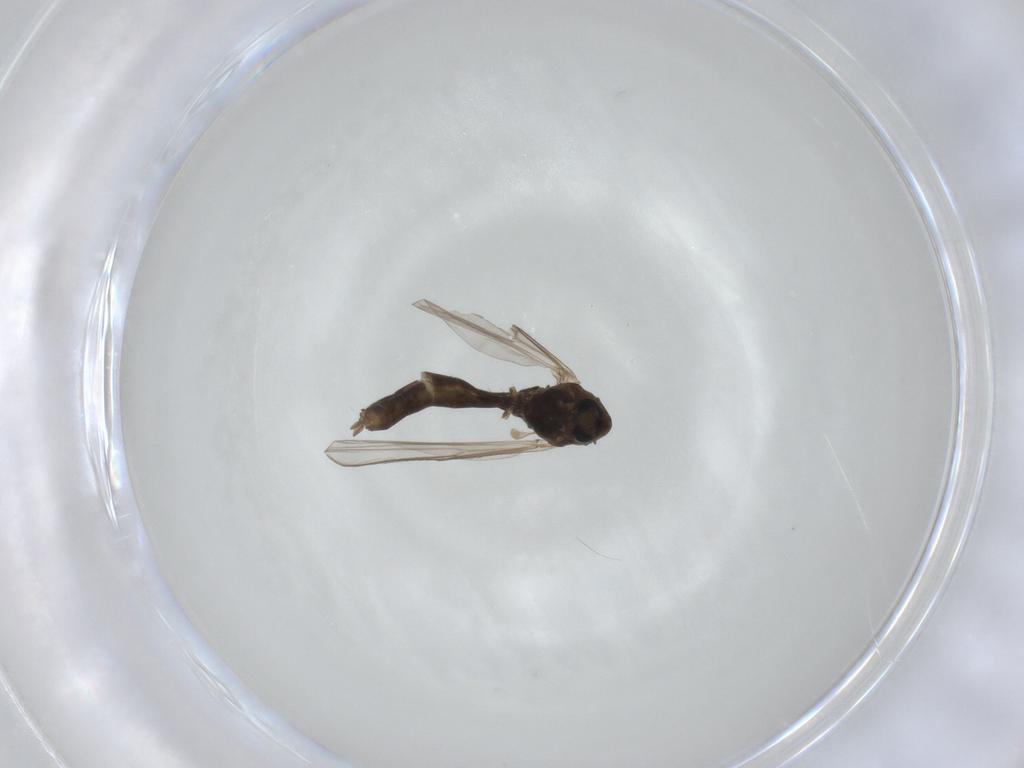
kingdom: Animalia
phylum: Arthropoda
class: Insecta
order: Diptera
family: Chironomidae
